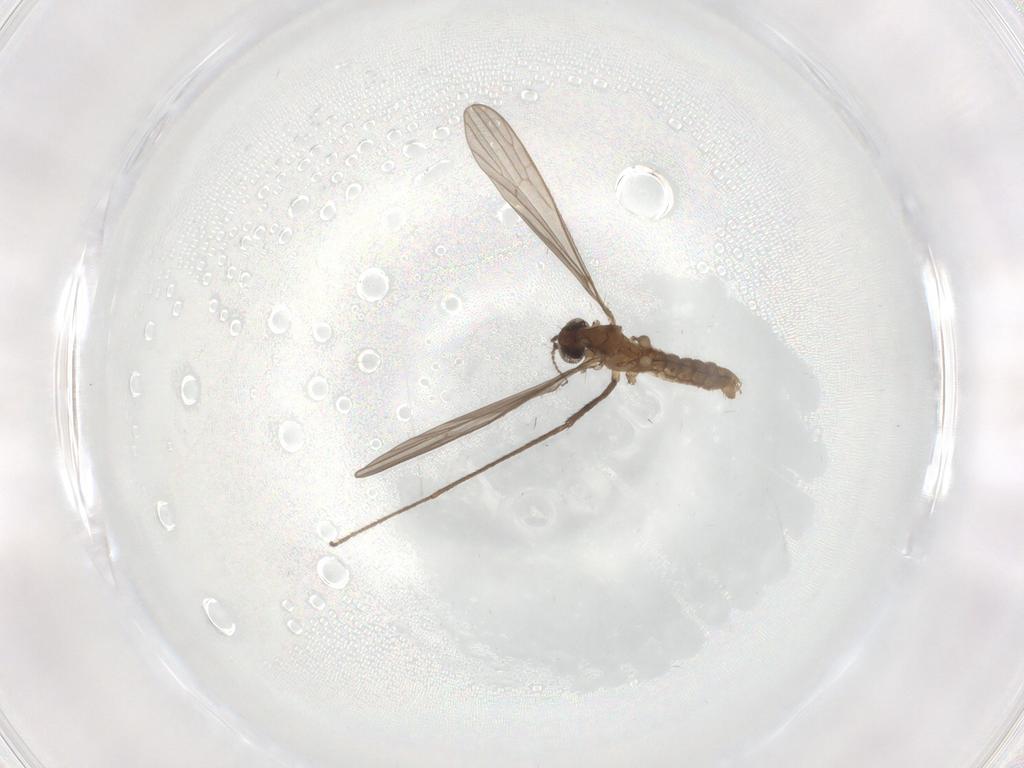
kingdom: Animalia
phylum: Arthropoda
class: Insecta
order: Diptera
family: Limoniidae
